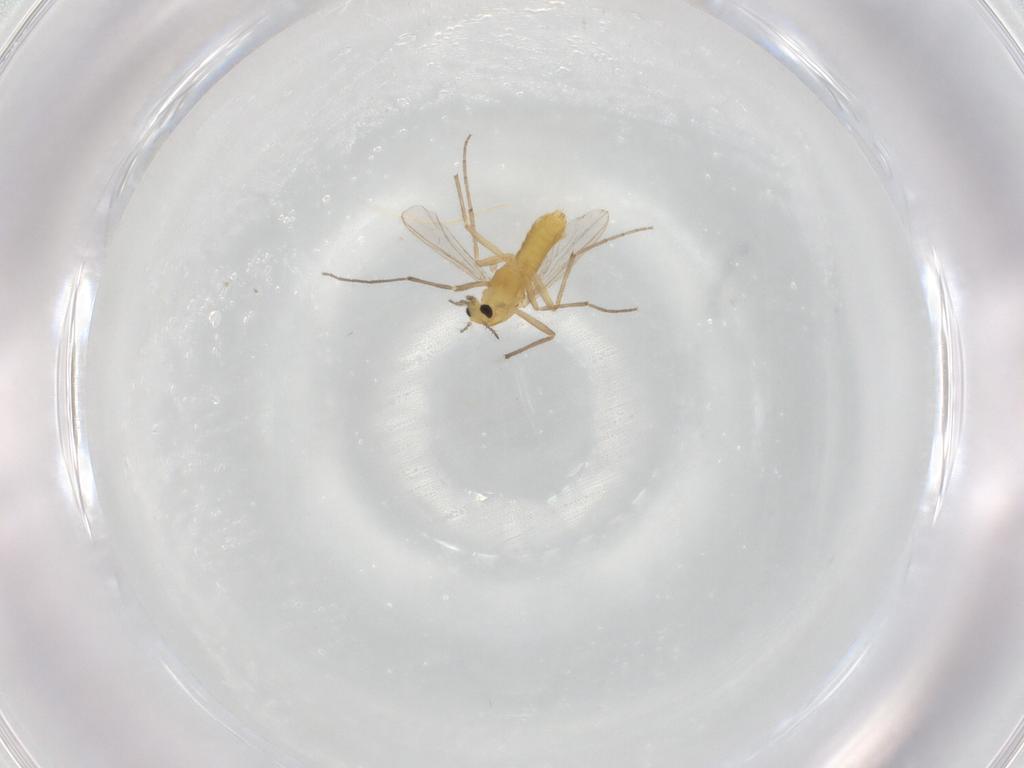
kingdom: Animalia
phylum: Arthropoda
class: Insecta
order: Diptera
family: Chironomidae
